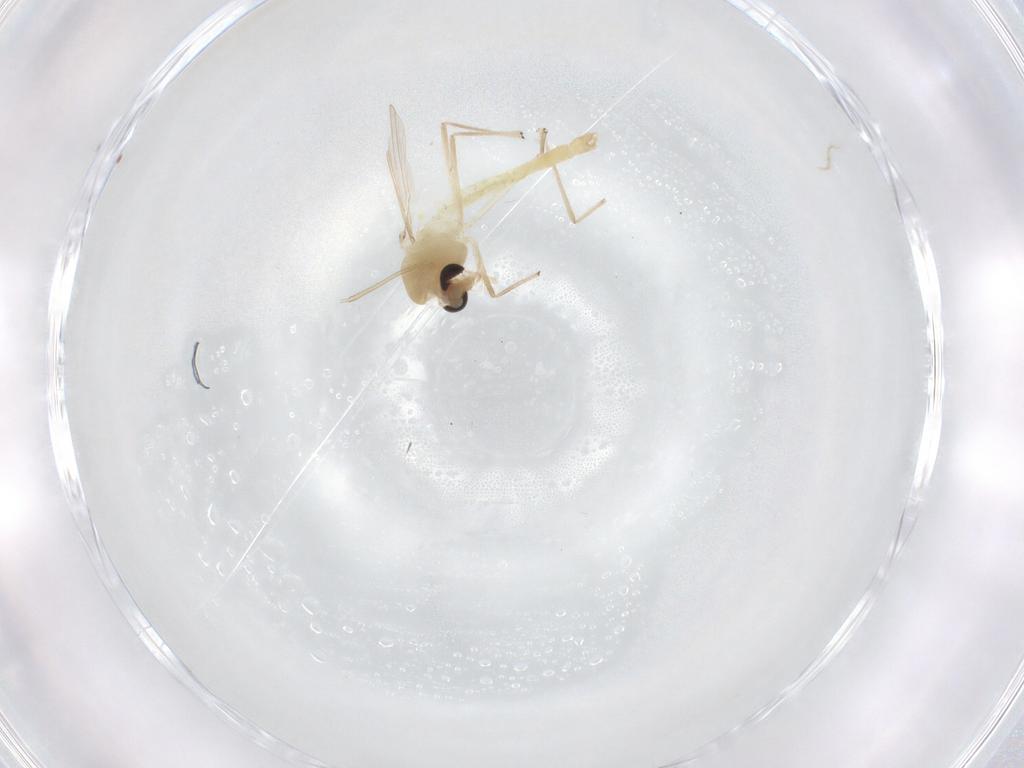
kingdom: Animalia
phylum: Arthropoda
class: Insecta
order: Diptera
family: Chironomidae
